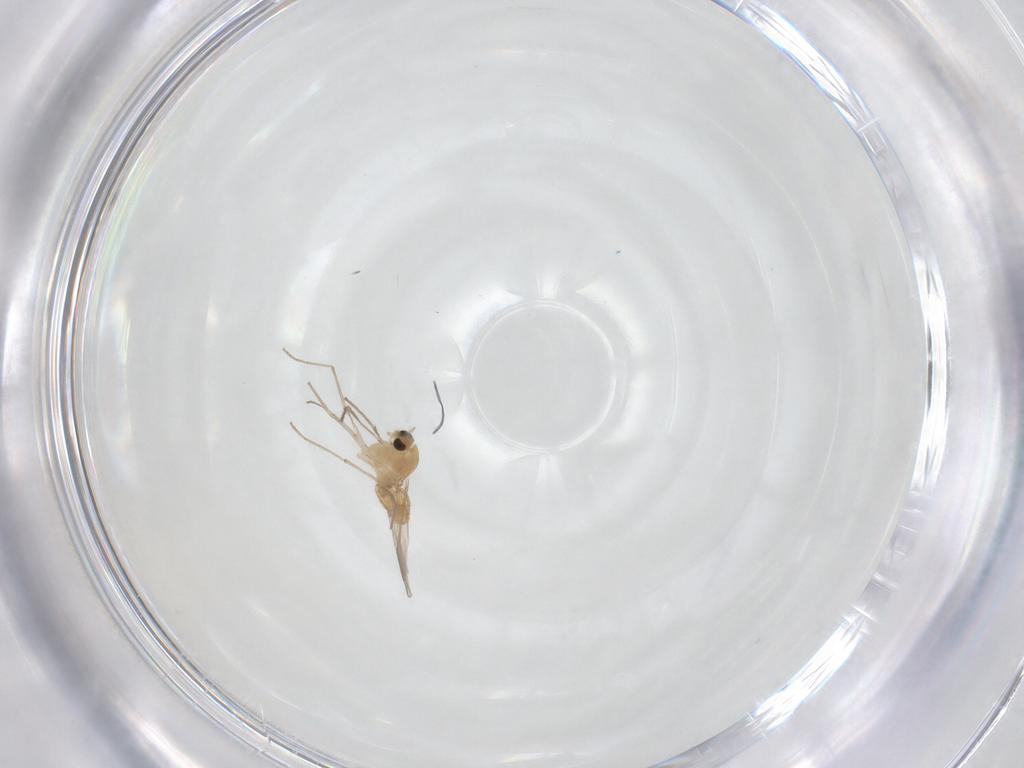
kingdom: Animalia
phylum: Arthropoda
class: Insecta
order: Diptera
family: Chironomidae
